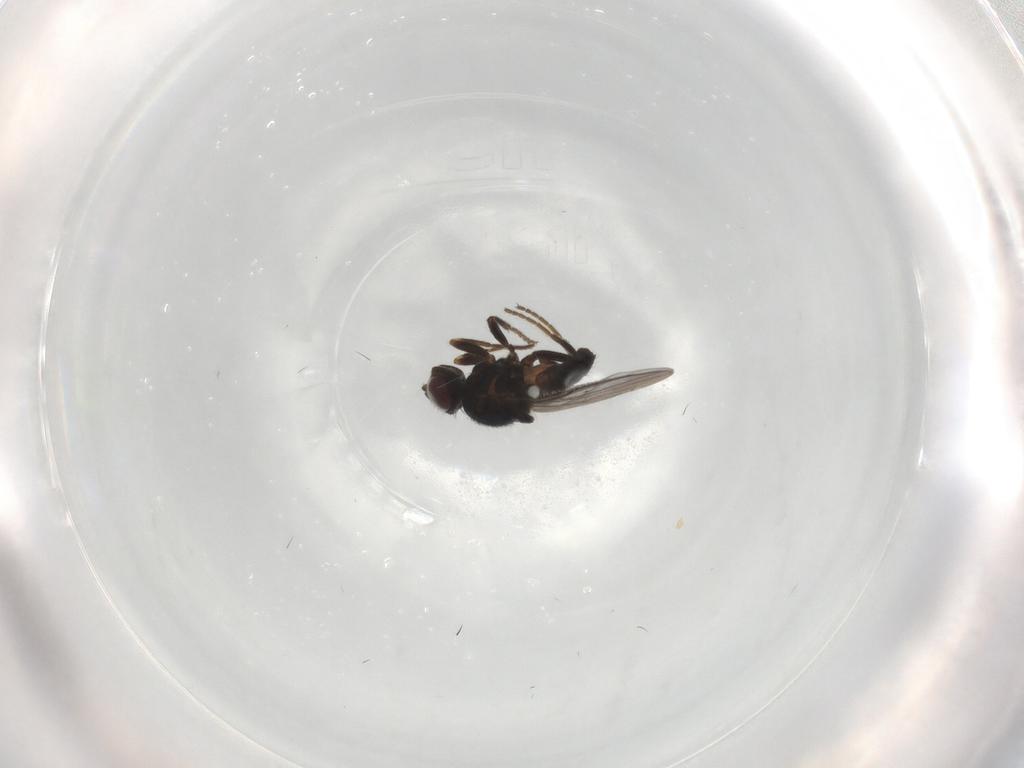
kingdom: Animalia
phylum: Arthropoda
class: Insecta
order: Diptera
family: Chloropidae
